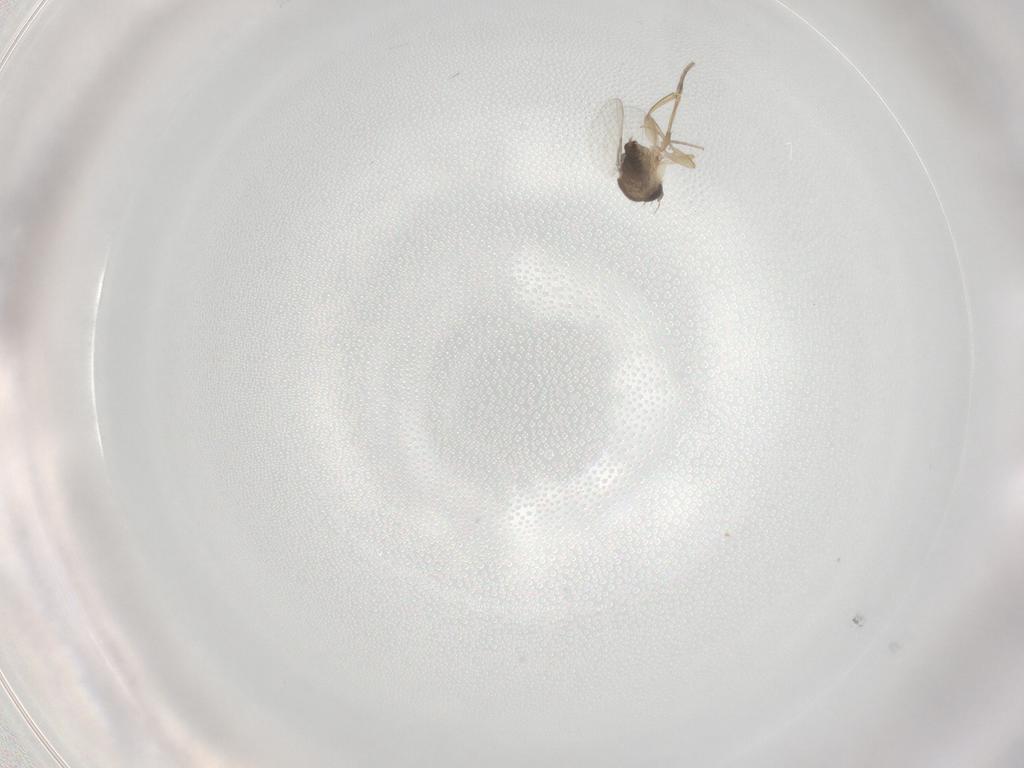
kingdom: Animalia
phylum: Arthropoda
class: Insecta
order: Diptera
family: Phoridae
